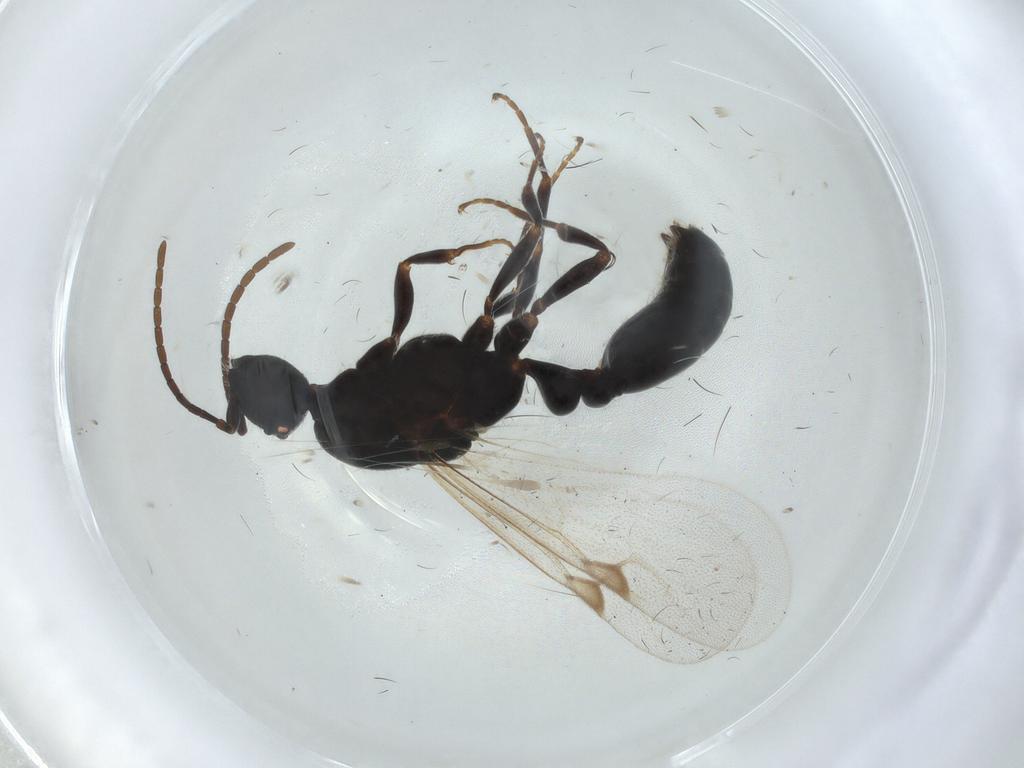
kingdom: Animalia
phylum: Arthropoda
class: Insecta
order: Hymenoptera
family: Formicidae
